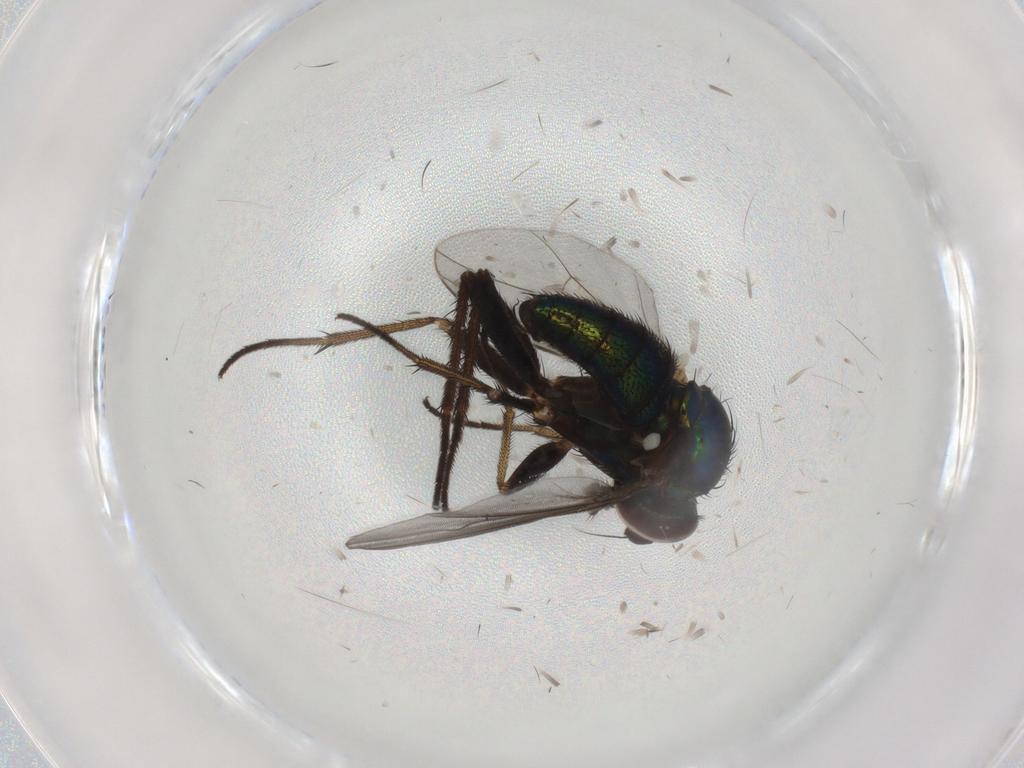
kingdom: Animalia
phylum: Arthropoda
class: Insecta
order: Diptera
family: Dolichopodidae
